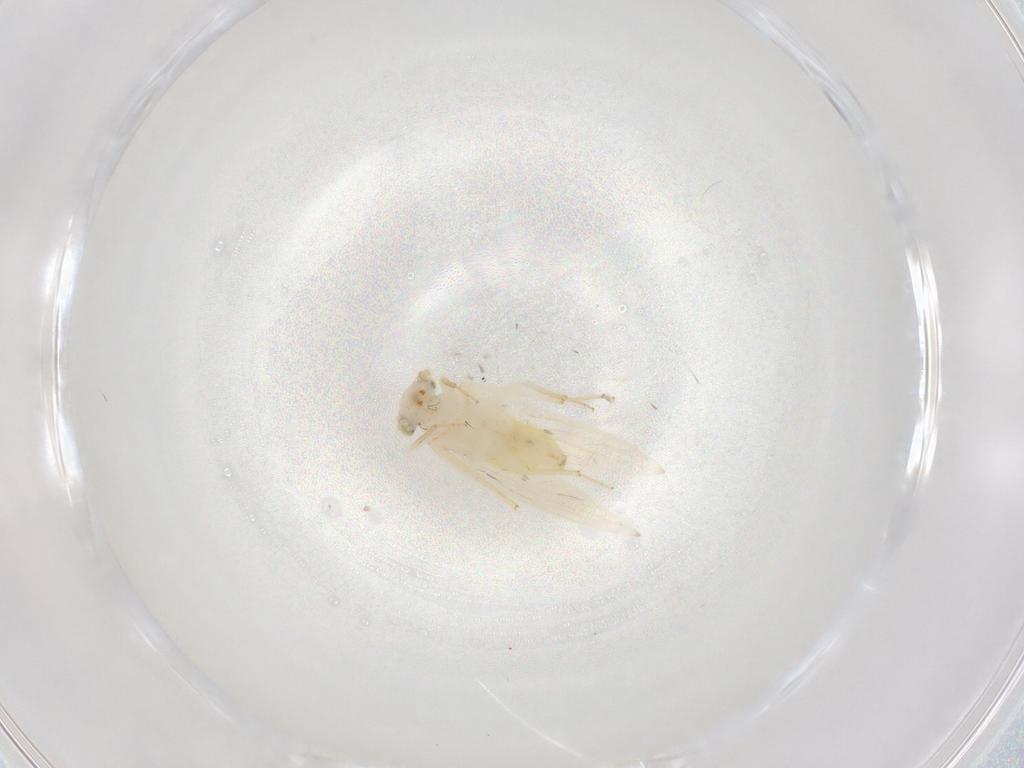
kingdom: Animalia
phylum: Arthropoda
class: Insecta
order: Psocodea
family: Lepidopsocidae
